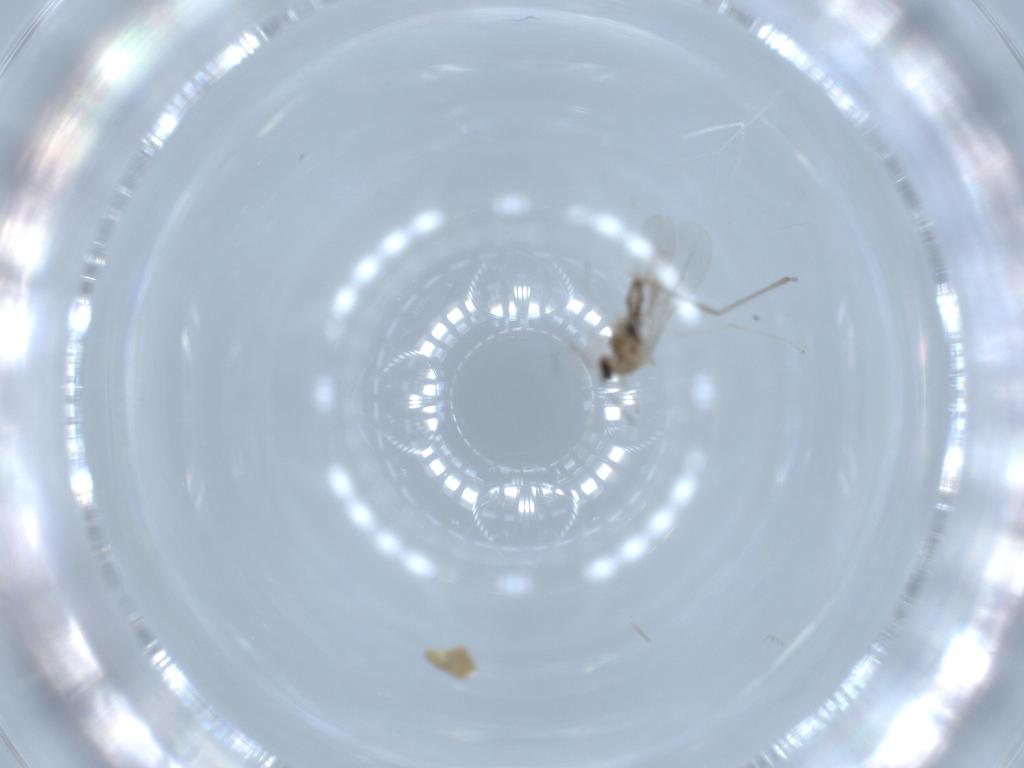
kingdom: Animalia
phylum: Arthropoda
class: Insecta
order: Diptera
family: Cecidomyiidae
